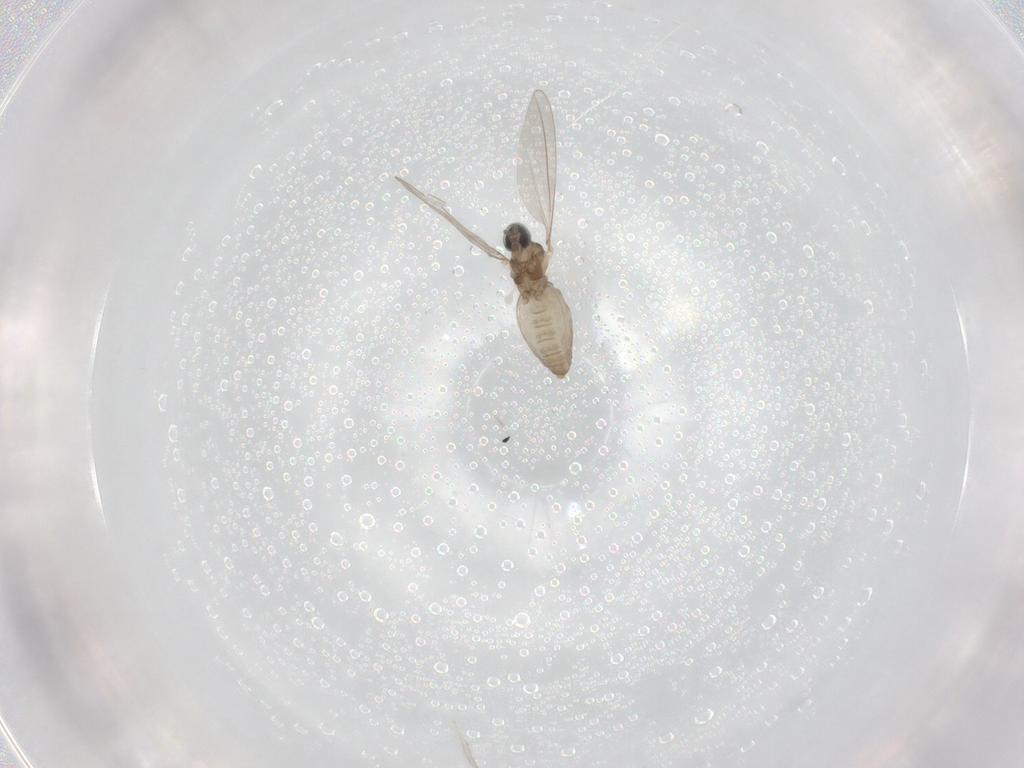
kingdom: Animalia
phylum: Arthropoda
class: Insecta
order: Diptera
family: Cecidomyiidae
